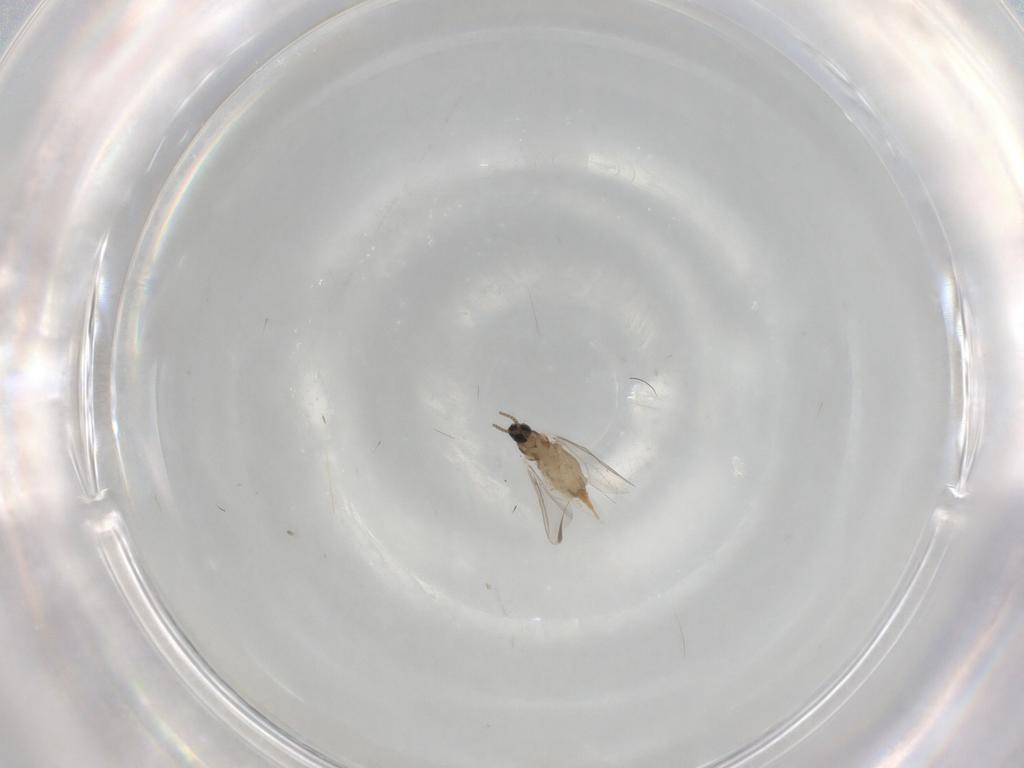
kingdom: Animalia
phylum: Arthropoda
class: Insecta
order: Diptera
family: Cecidomyiidae
